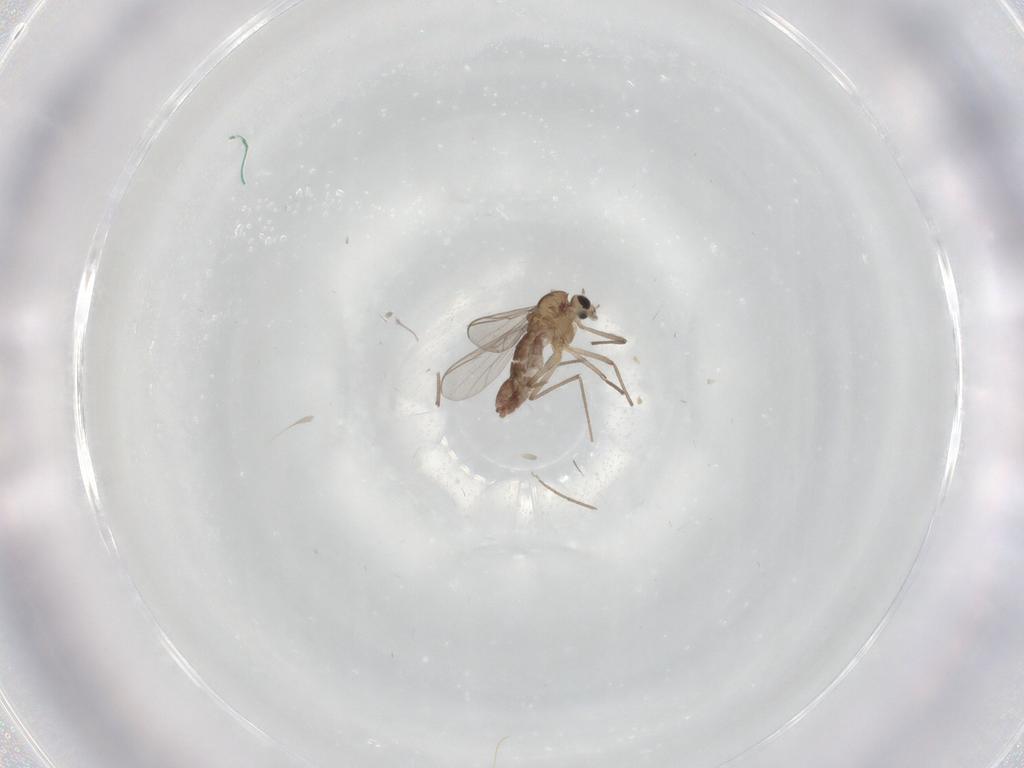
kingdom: Animalia
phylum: Arthropoda
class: Insecta
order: Diptera
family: Chironomidae
